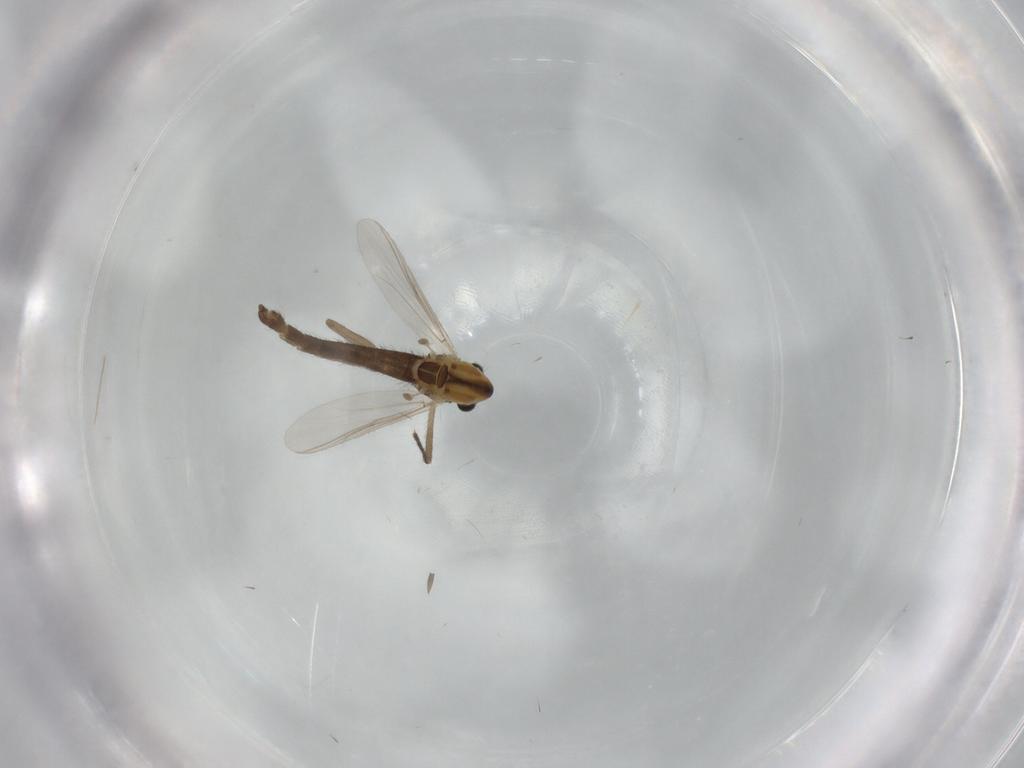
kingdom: Animalia
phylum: Arthropoda
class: Insecta
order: Diptera
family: Chironomidae
